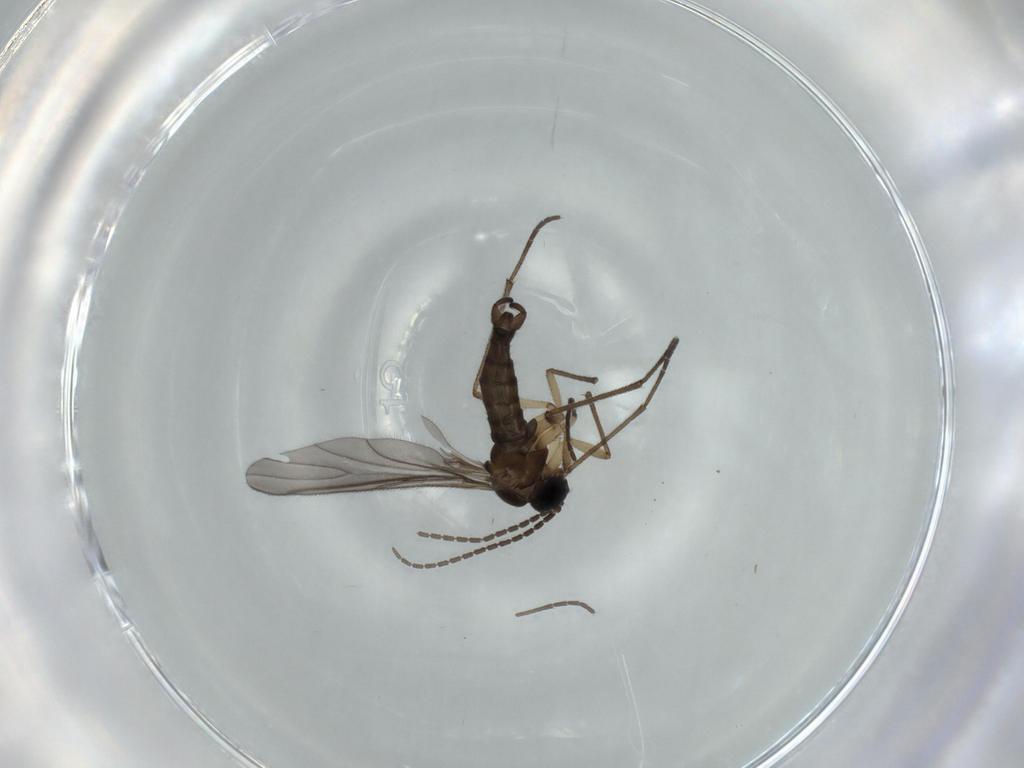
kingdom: Animalia
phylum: Arthropoda
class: Insecta
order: Diptera
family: Sciaridae
